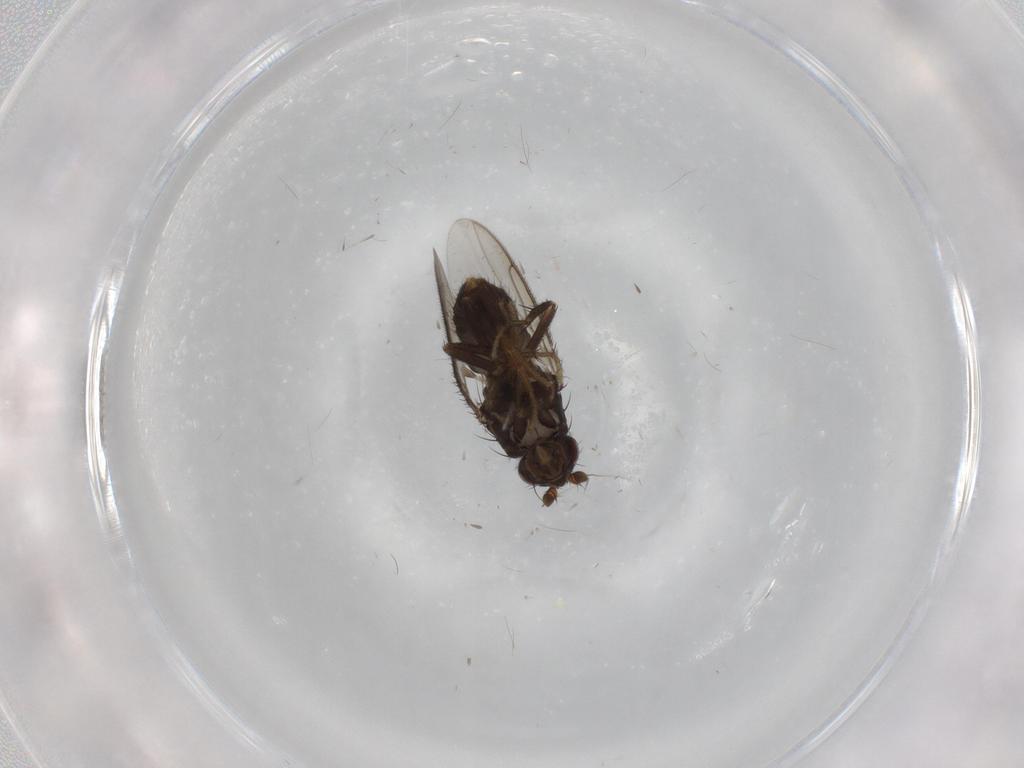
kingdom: Animalia
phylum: Arthropoda
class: Insecta
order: Diptera
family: Sphaeroceridae
